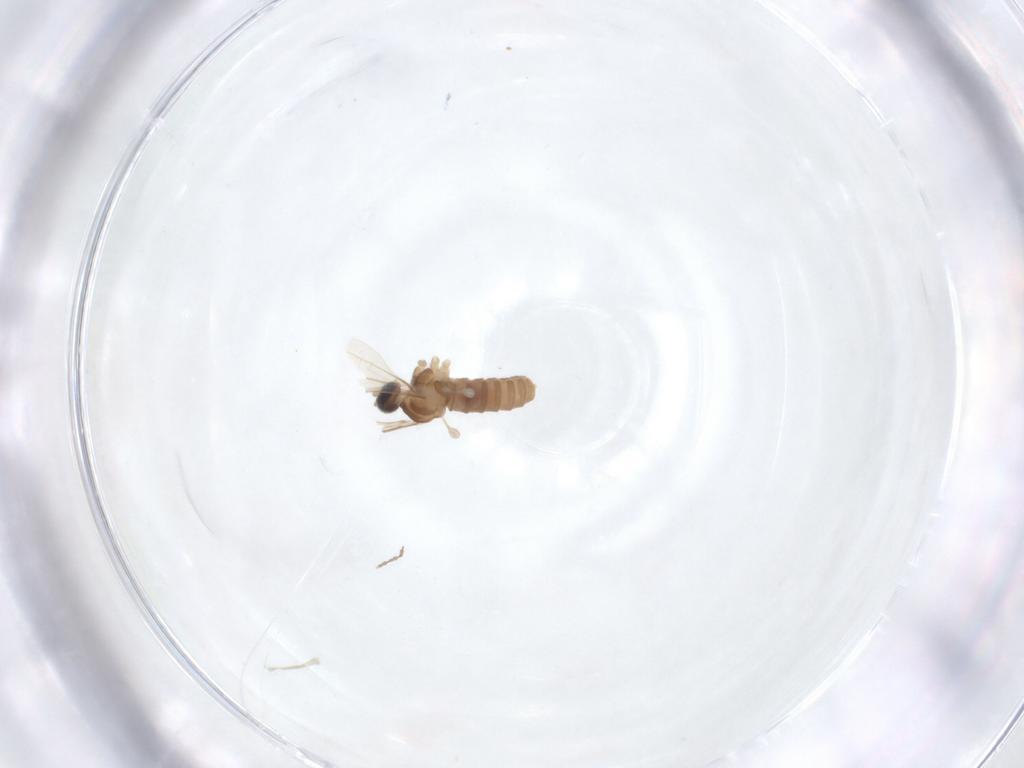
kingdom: Animalia
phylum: Arthropoda
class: Insecta
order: Diptera
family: Cecidomyiidae
